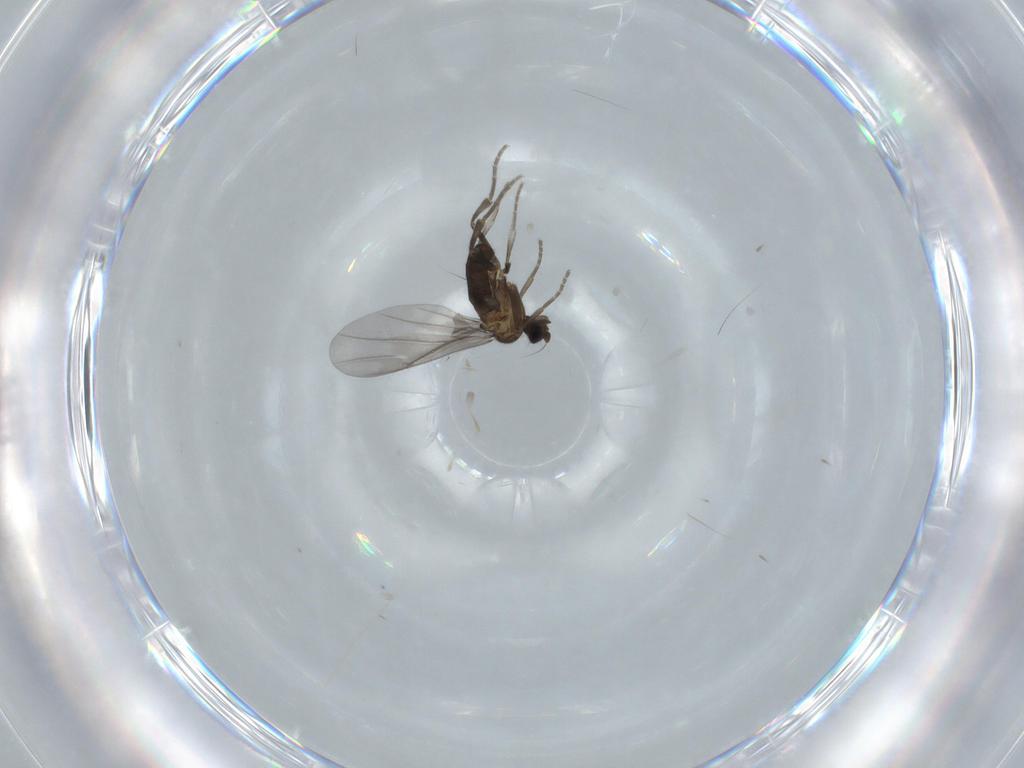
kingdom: Animalia
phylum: Arthropoda
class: Insecta
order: Diptera
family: Phoridae
